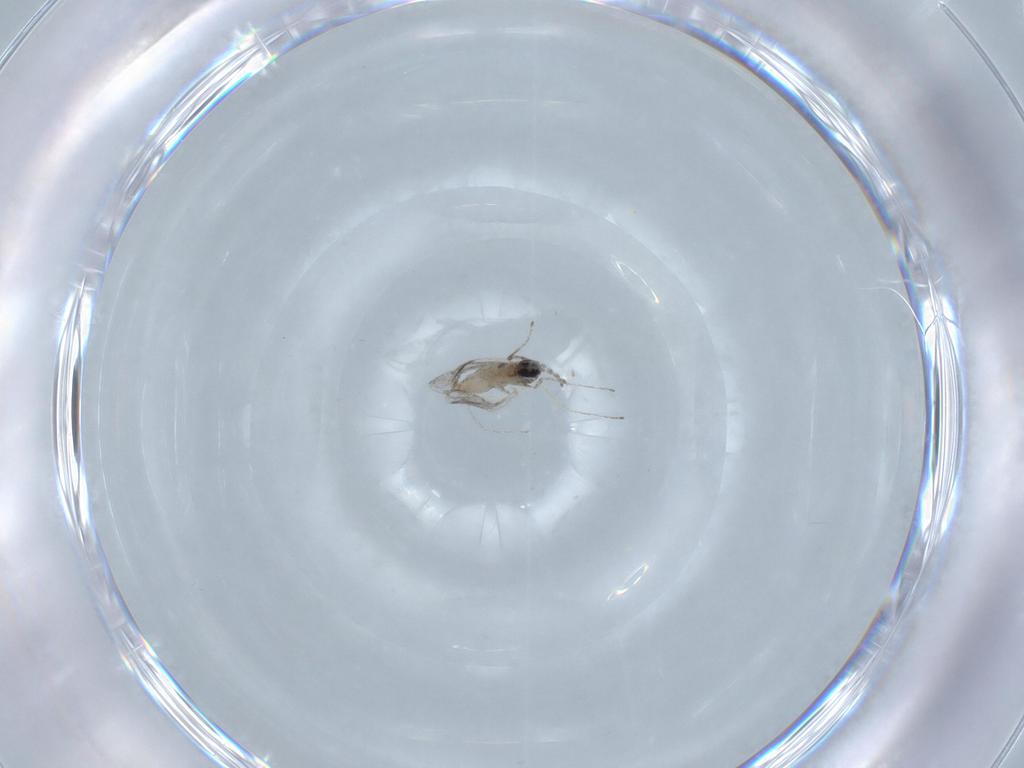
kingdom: Animalia
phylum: Arthropoda
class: Insecta
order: Diptera
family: Cecidomyiidae
